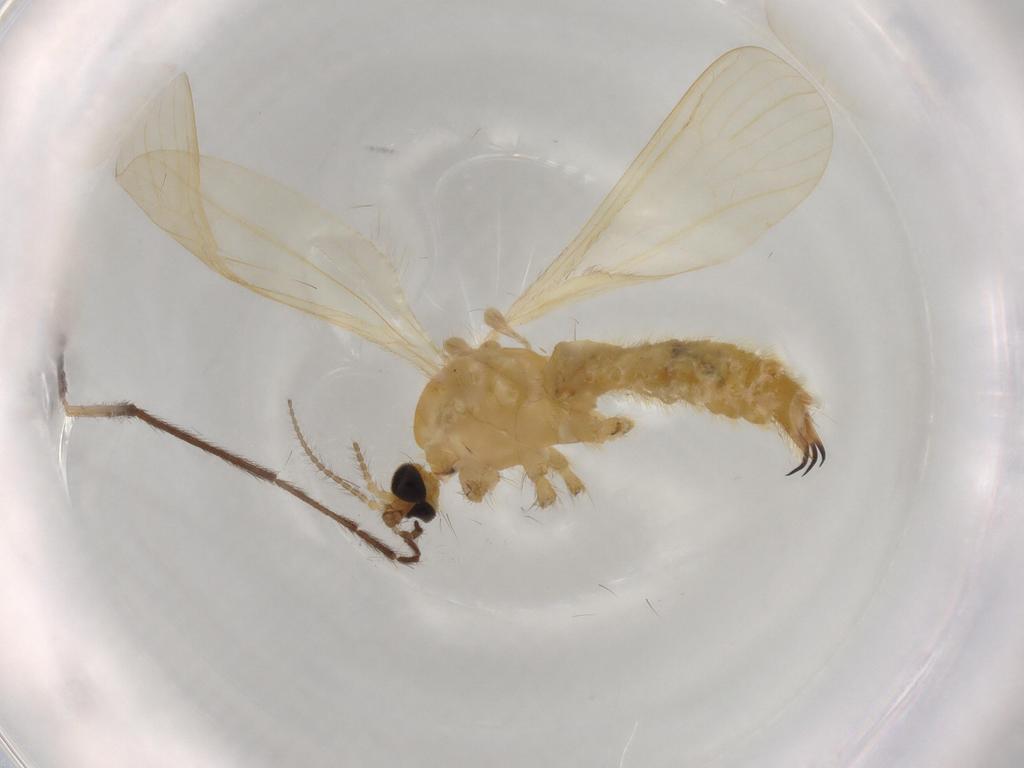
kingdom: Animalia
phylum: Arthropoda
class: Insecta
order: Diptera
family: Limoniidae
